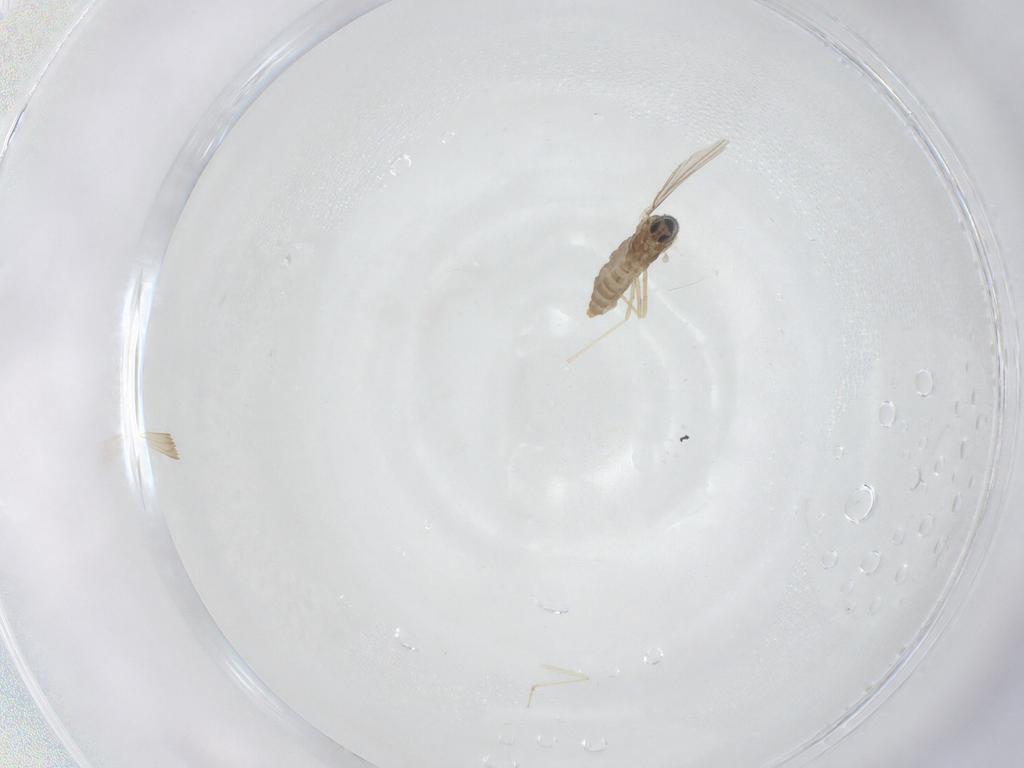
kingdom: Animalia
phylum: Arthropoda
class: Insecta
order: Diptera
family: Cecidomyiidae
